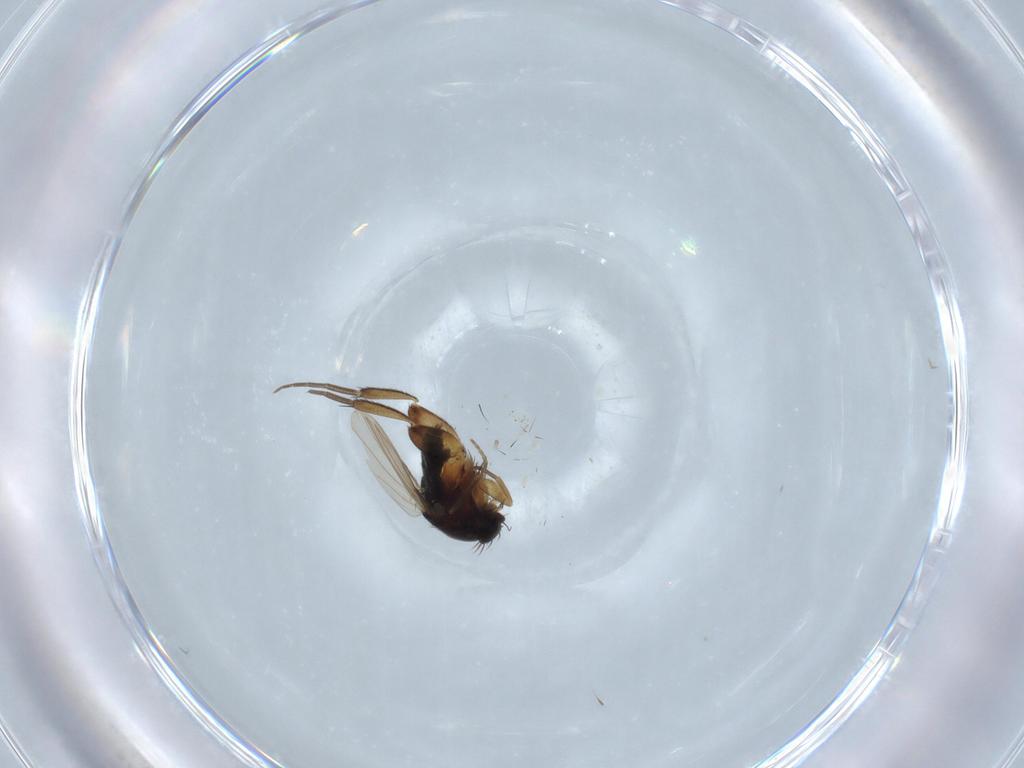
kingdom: Animalia
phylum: Arthropoda
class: Insecta
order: Diptera
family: Phoridae
